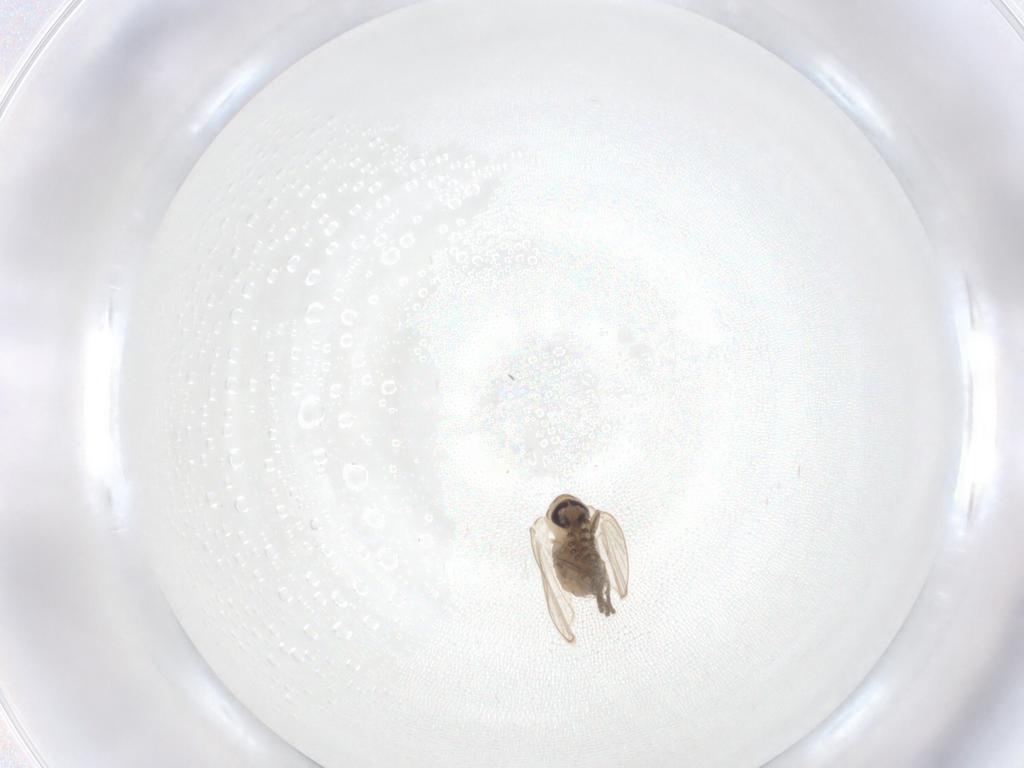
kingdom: Animalia
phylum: Arthropoda
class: Insecta
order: Diptera
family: Psychodidae
